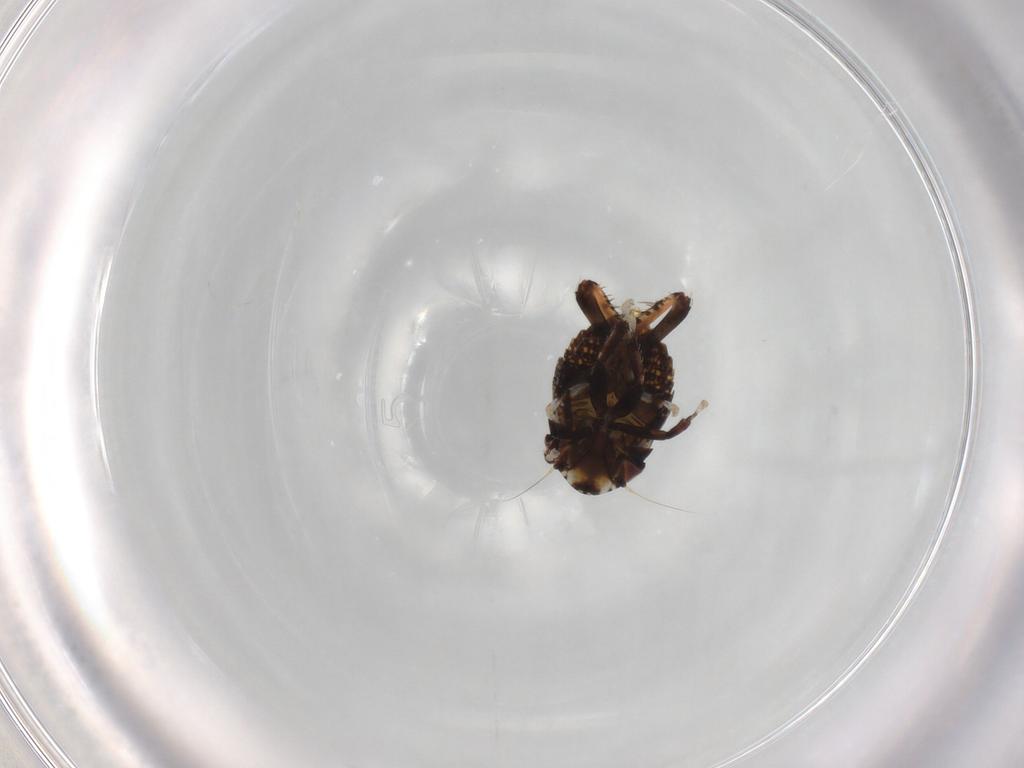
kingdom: Animalia
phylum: Arthropoda
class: Insecta
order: Hemiptera
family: Cicadellidae
